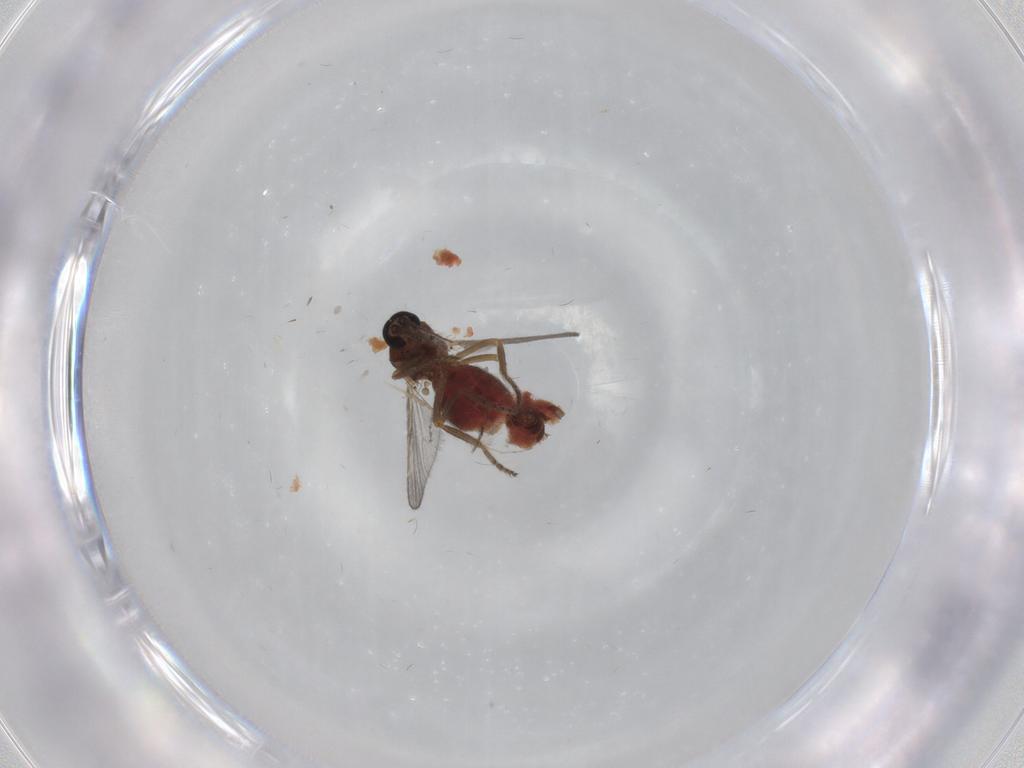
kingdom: Animalia
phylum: Arthropoda
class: Insecta
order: Diptera
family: Ceratopogonidae
